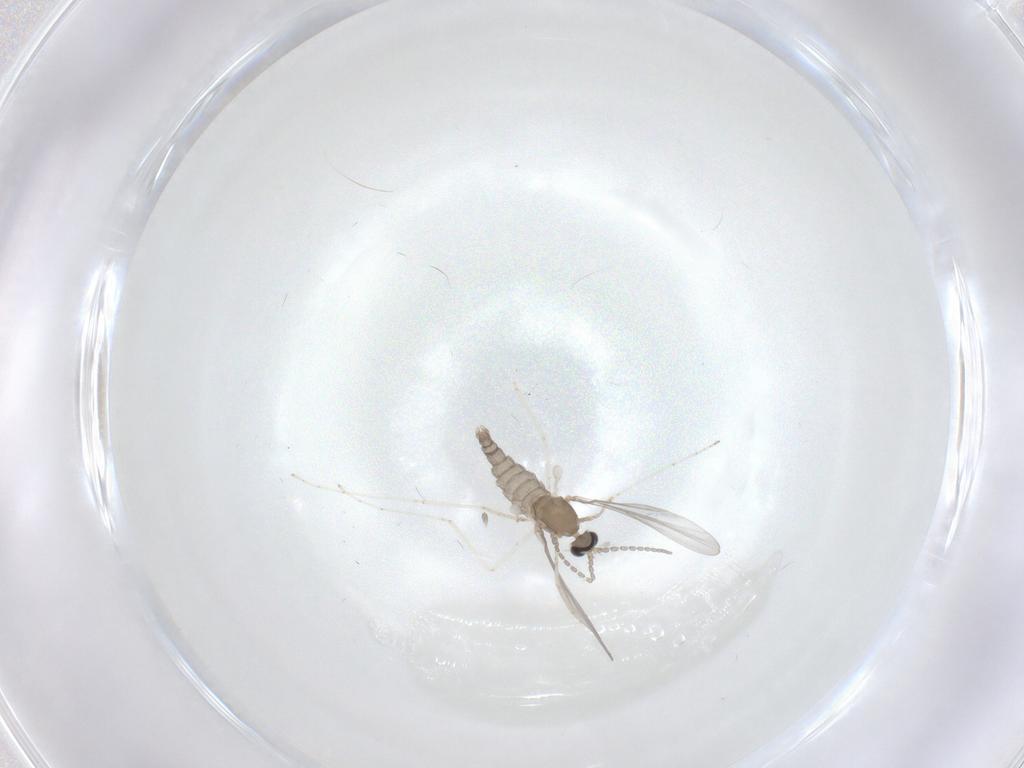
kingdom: Animalia
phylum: Arthropoda
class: Insecta
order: Diptera
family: Cecidomyiidae
